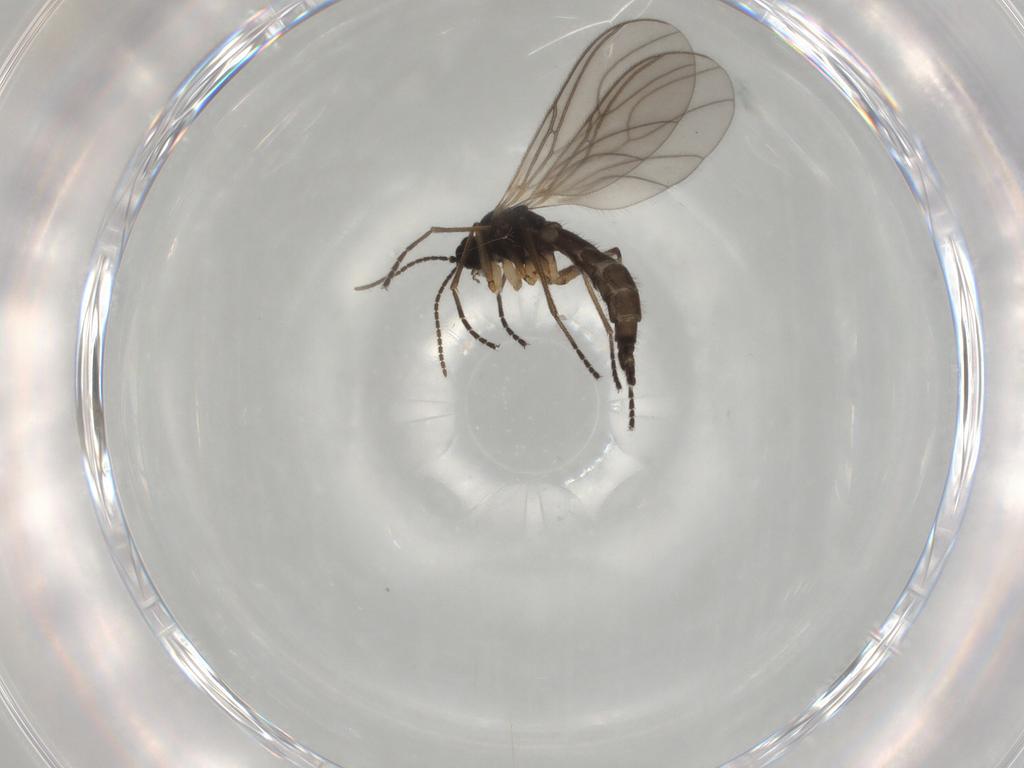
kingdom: Animalia
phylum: Arthropoda
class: Insecta
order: Diptera
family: Sciaridae
